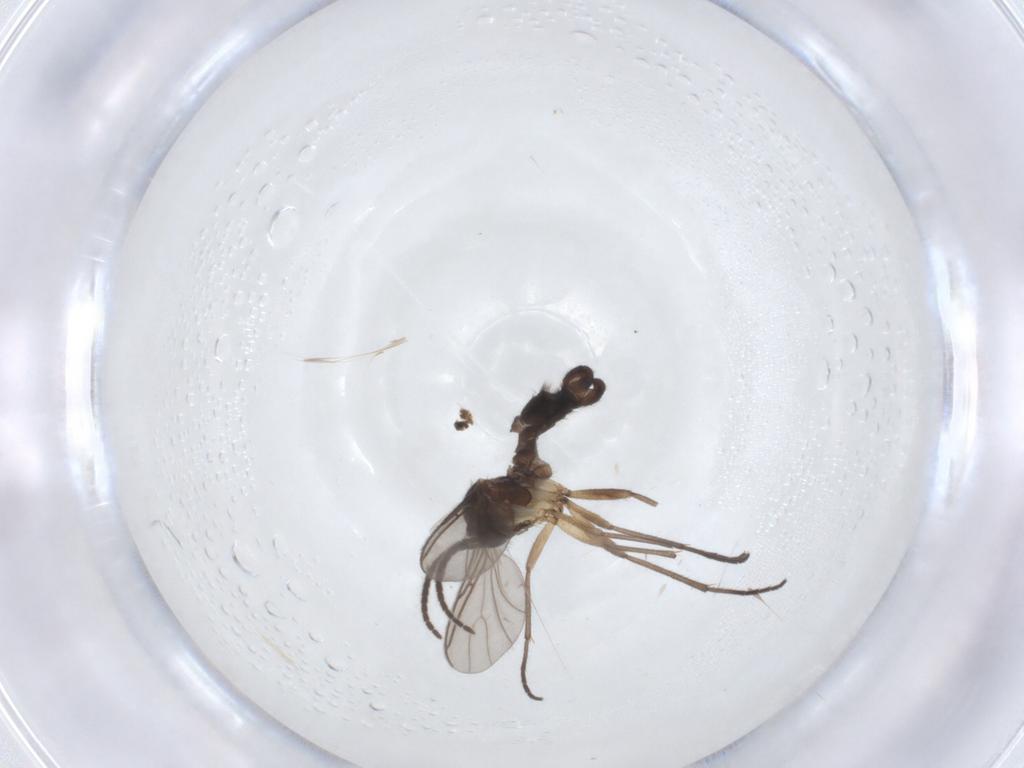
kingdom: Animalia
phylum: Arthropoda
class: Insecta
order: Diptera
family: Sciaridae
